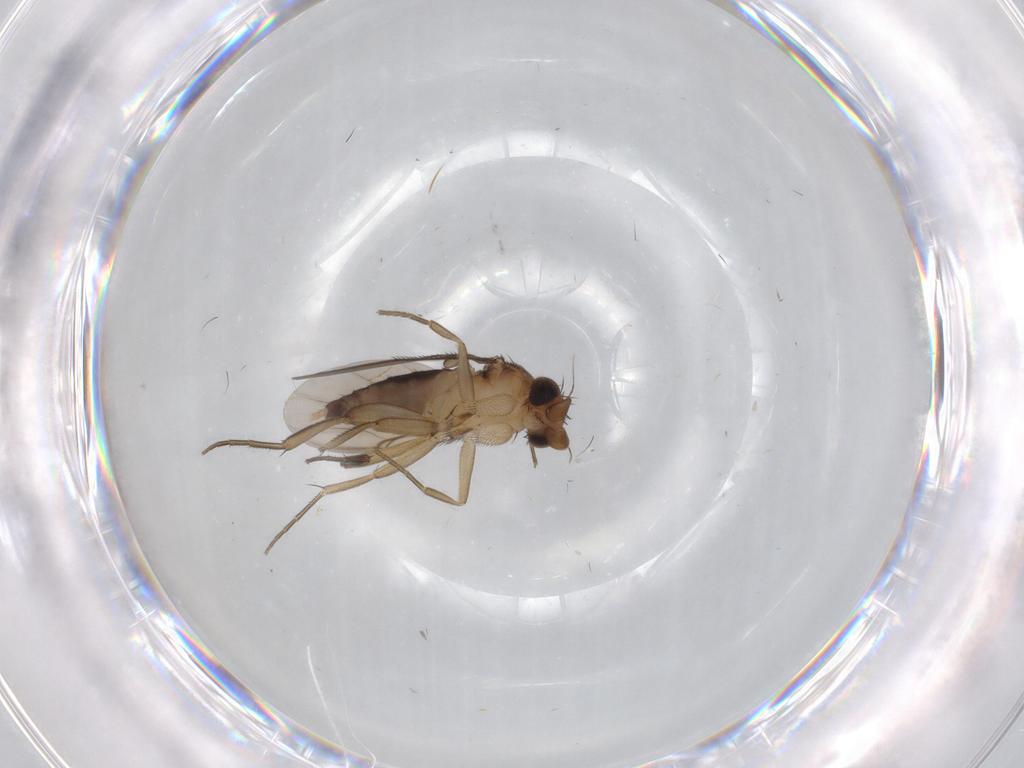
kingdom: Animalia
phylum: Arthropoda
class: Insecta
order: Diptera
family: Phoridae
